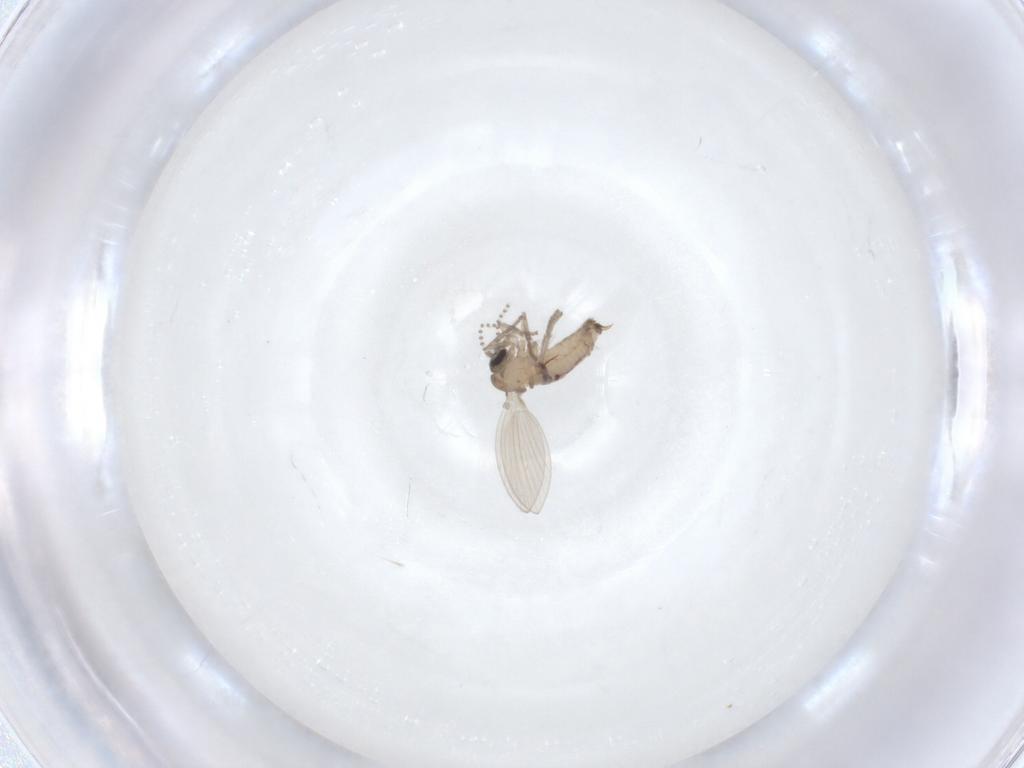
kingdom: Animalia
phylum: Arthropoda
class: Insecta
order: Diptera
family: Psychodidae
